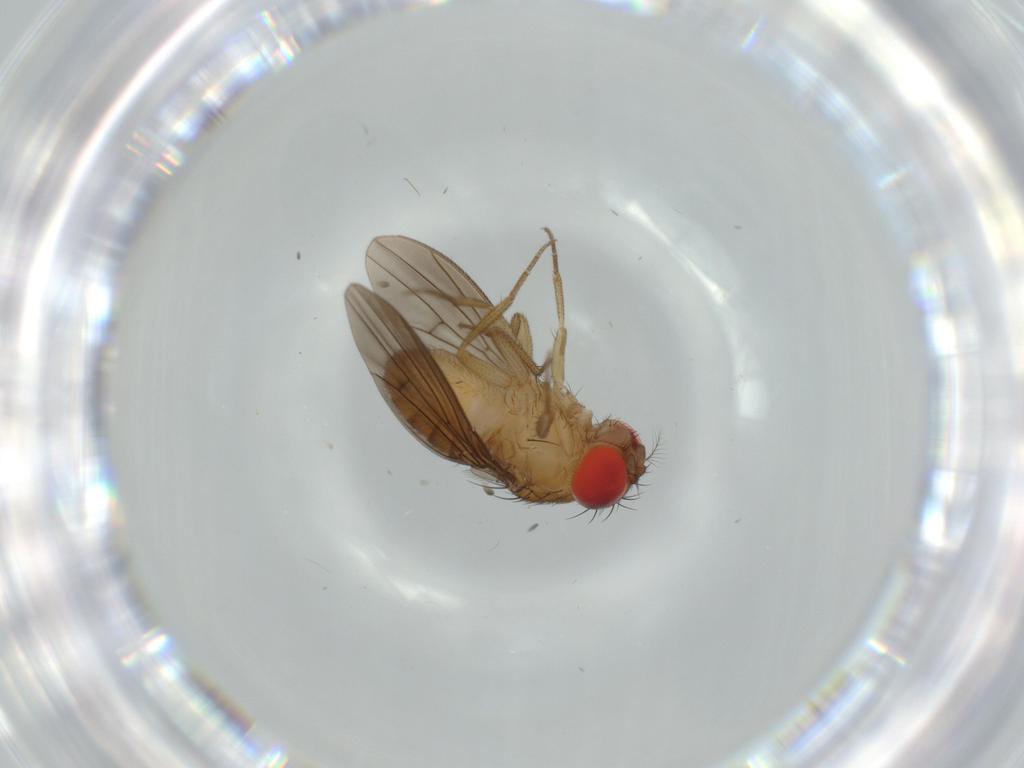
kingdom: Animalia
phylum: Arthropoda
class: Insecta
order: Diptera
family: Drosophilidae
